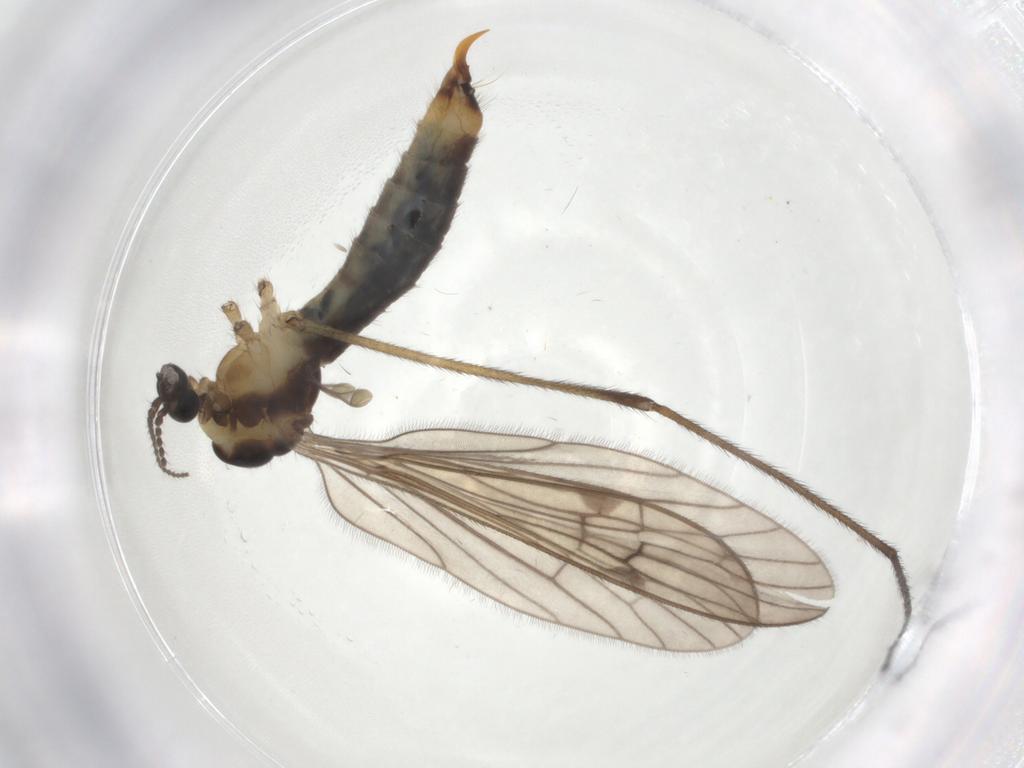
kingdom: Animalia
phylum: Arthropoda
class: Insecta
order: Diptera
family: Limoniidae
